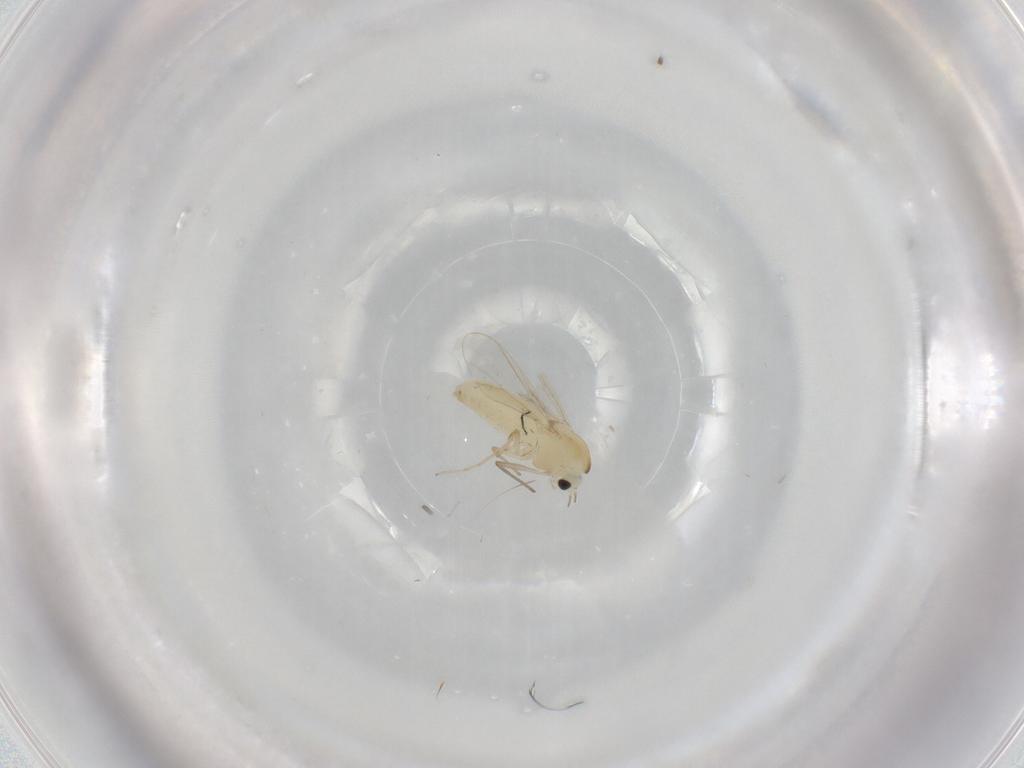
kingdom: Animalia
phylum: Arthropoda
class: Insecta
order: Diptera
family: Chironomidae
